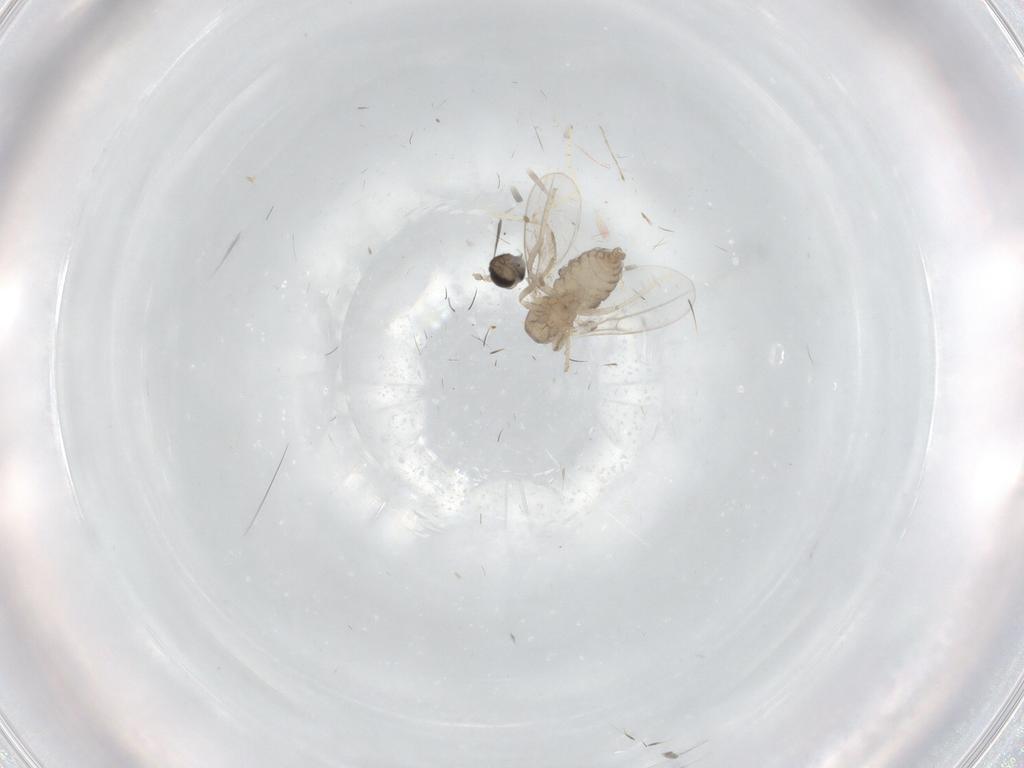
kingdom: Animalia
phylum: Arthropoda
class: Insecta
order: Diptera
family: Cecidomyiidae
